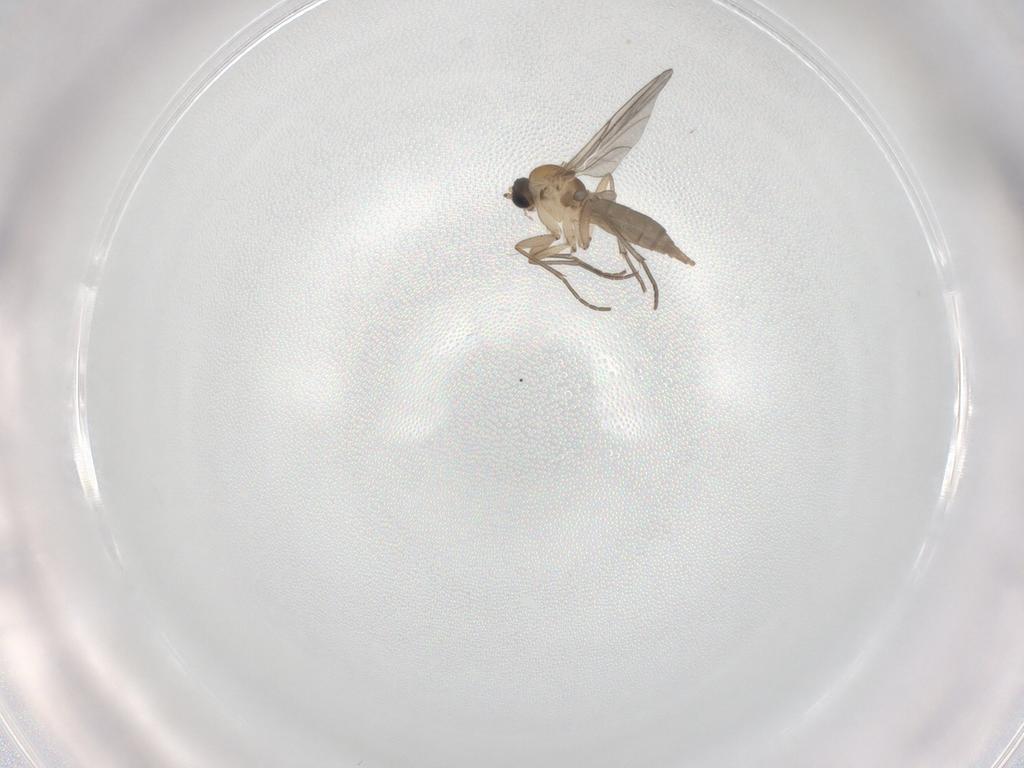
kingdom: Animalia
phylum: Arthropoda
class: Insecta
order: Diptera
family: Sciaridae
